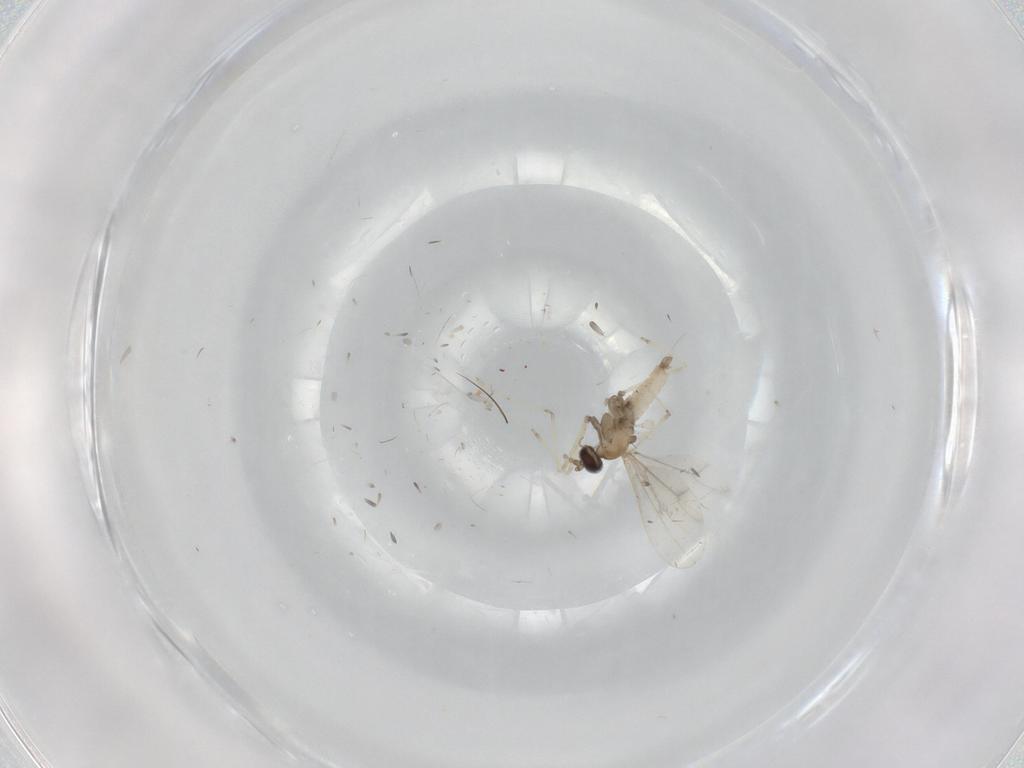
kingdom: Animalia
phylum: Arthropoda
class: Insecta
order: Diptera
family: Cecidomyiidae
